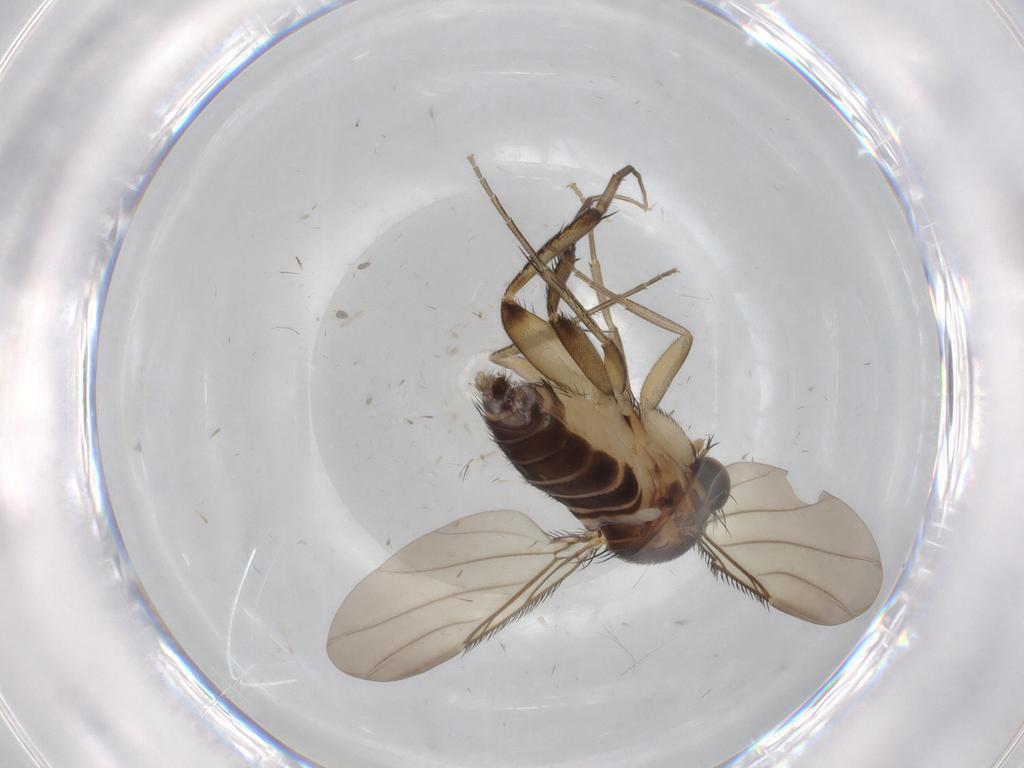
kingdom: Animalia
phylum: Arthropoda
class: Insecta
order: Diptera
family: Phoridae
